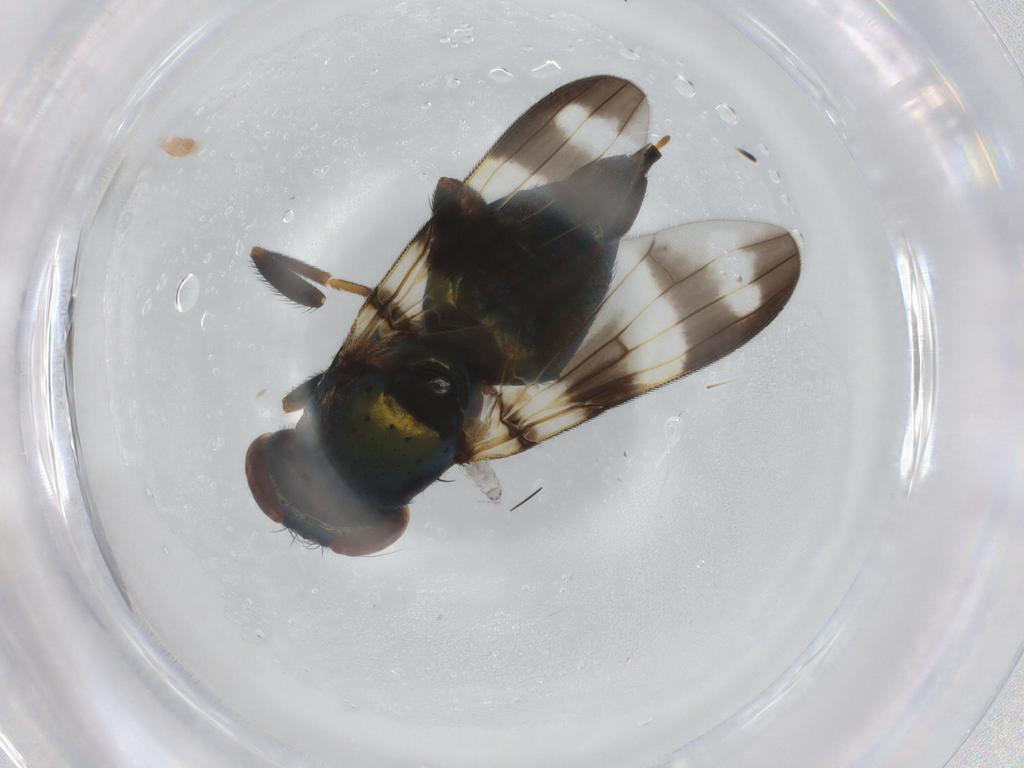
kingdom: Animalia
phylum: Arthropoda
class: Insecta
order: Diptera
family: Ulidiidae
